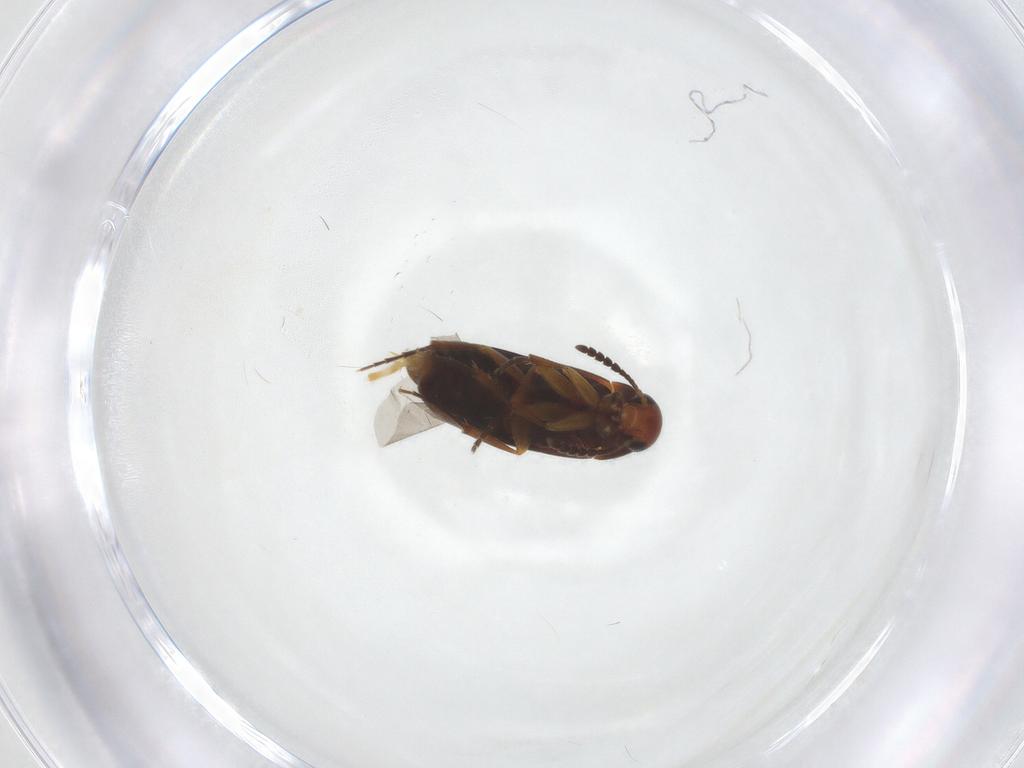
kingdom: Animalia
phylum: Arthropoda
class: Insecta
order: Coleoptera
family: Scraptiidae
